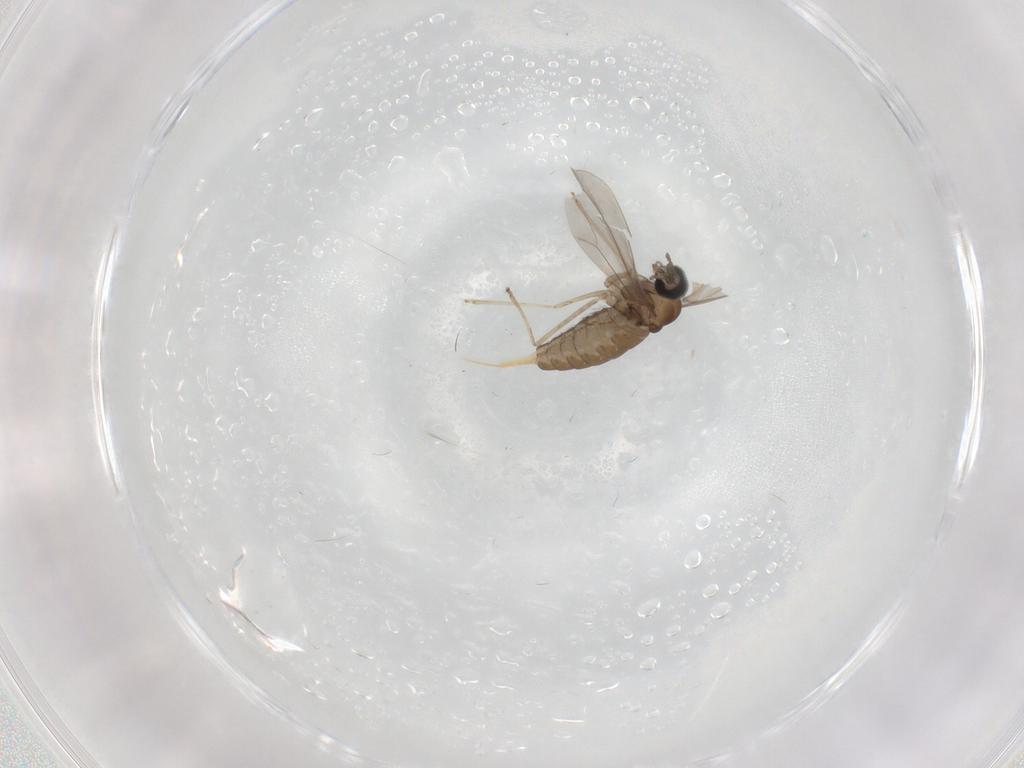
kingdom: Animalia
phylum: Arthropoda
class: Insecta
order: Diptera
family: Cecidomyiidae
